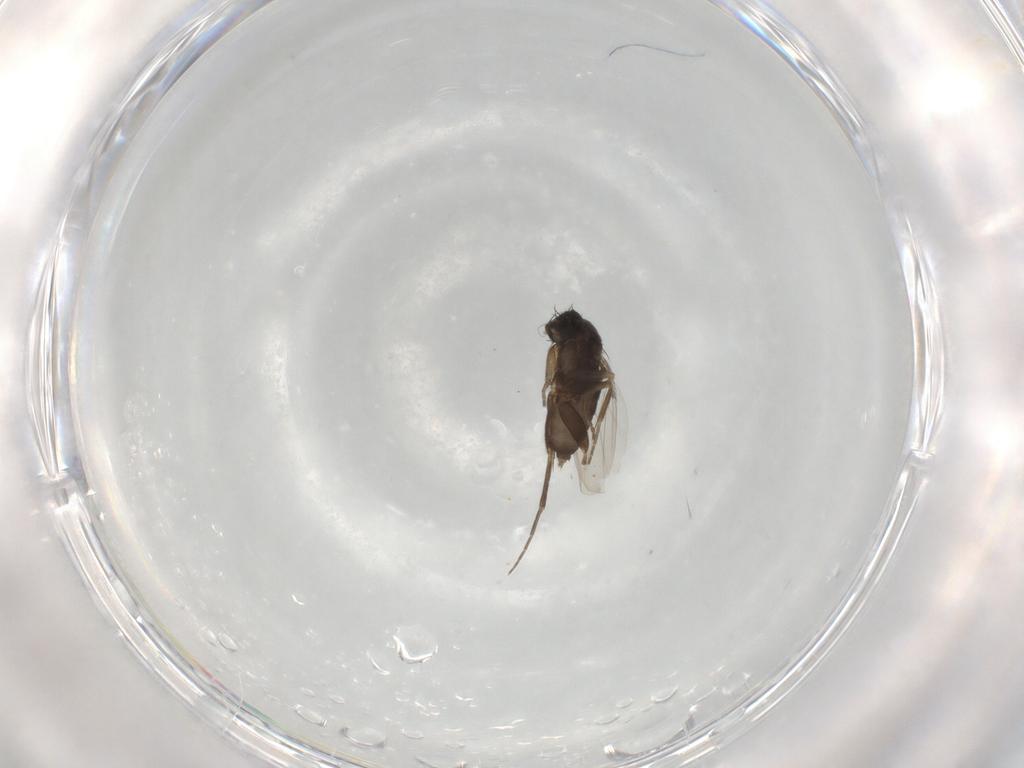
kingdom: Animalia
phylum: Arthropoda
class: Insecta
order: Diptera
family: Phoridae
